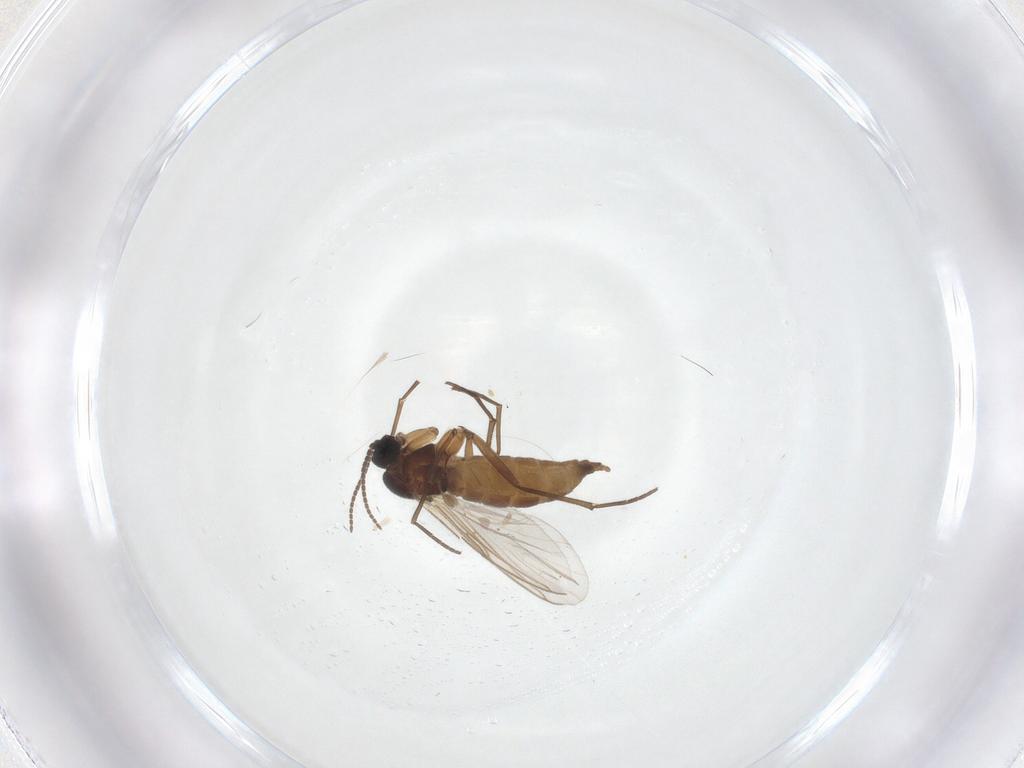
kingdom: Animalia
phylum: Arthropoda
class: Insecta
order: Diptera
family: Sciaridae
